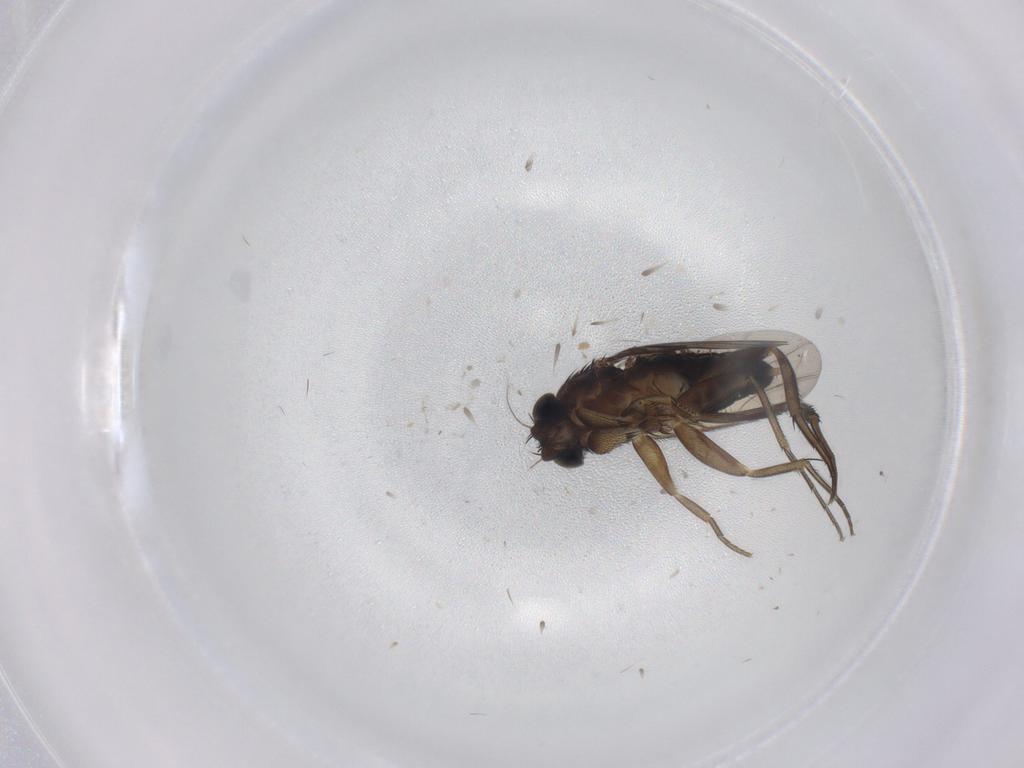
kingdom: Animalia
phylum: Arthropoda
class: Insecta
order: Diptera
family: Phoridae
